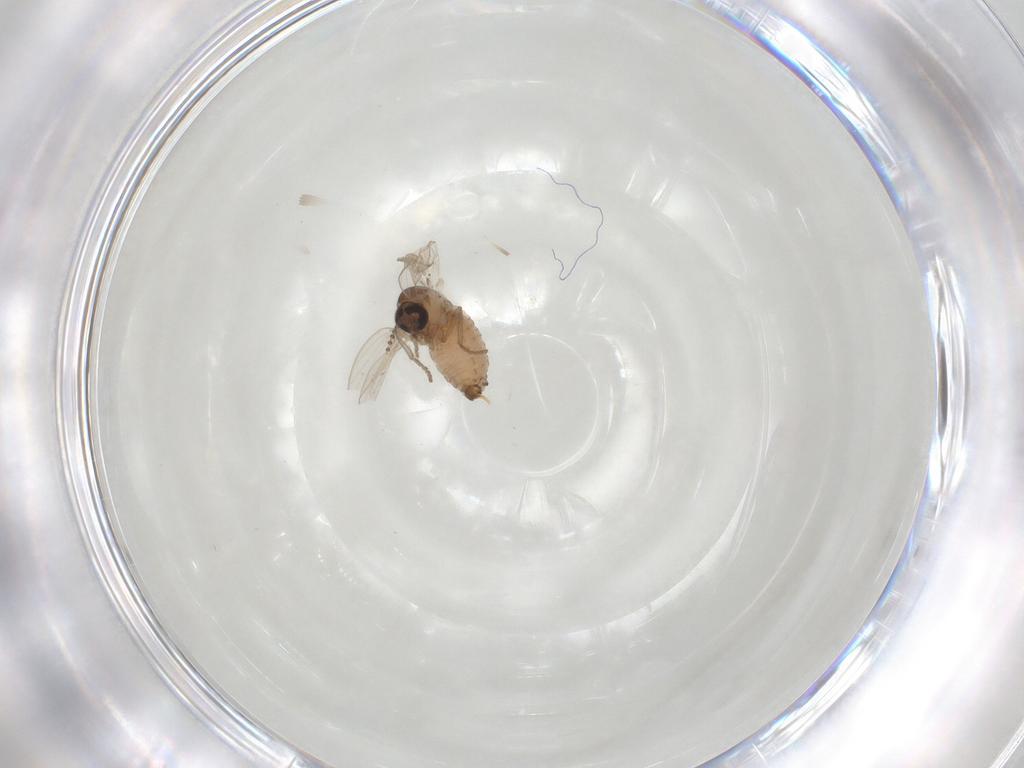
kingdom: Animalia
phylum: Arthropoda
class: Insecta
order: Diptera
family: Psychodidae
